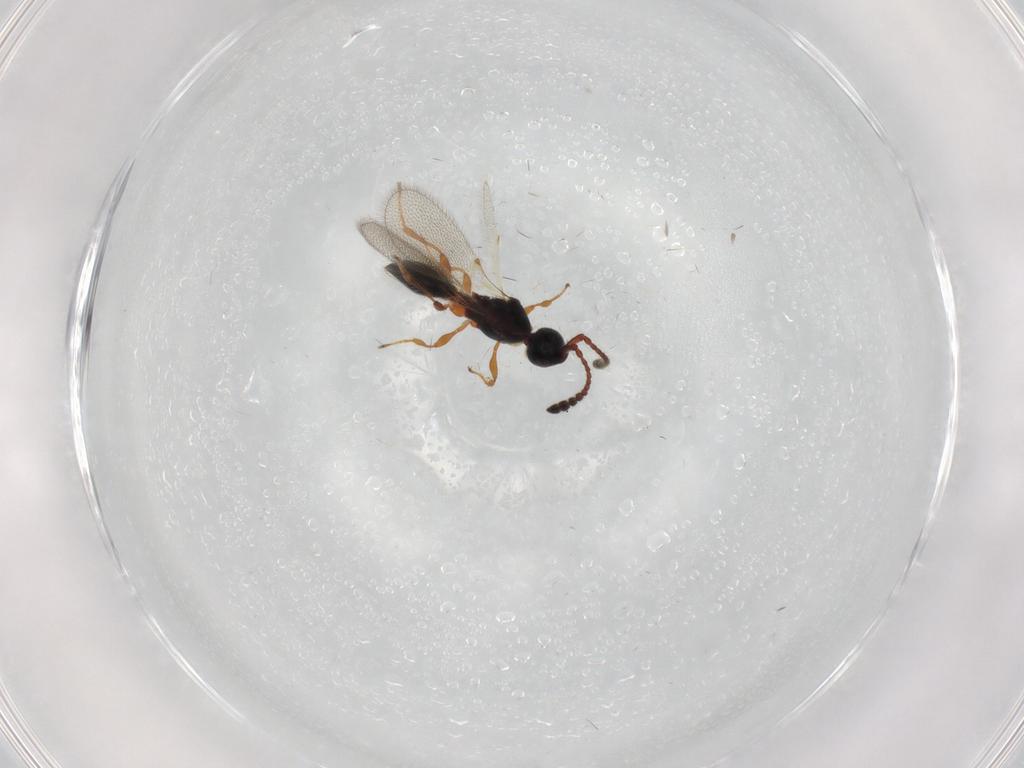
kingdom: Animalia
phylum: Arthropoda
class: Insecta
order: Hymenoptera
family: Diapriidae
